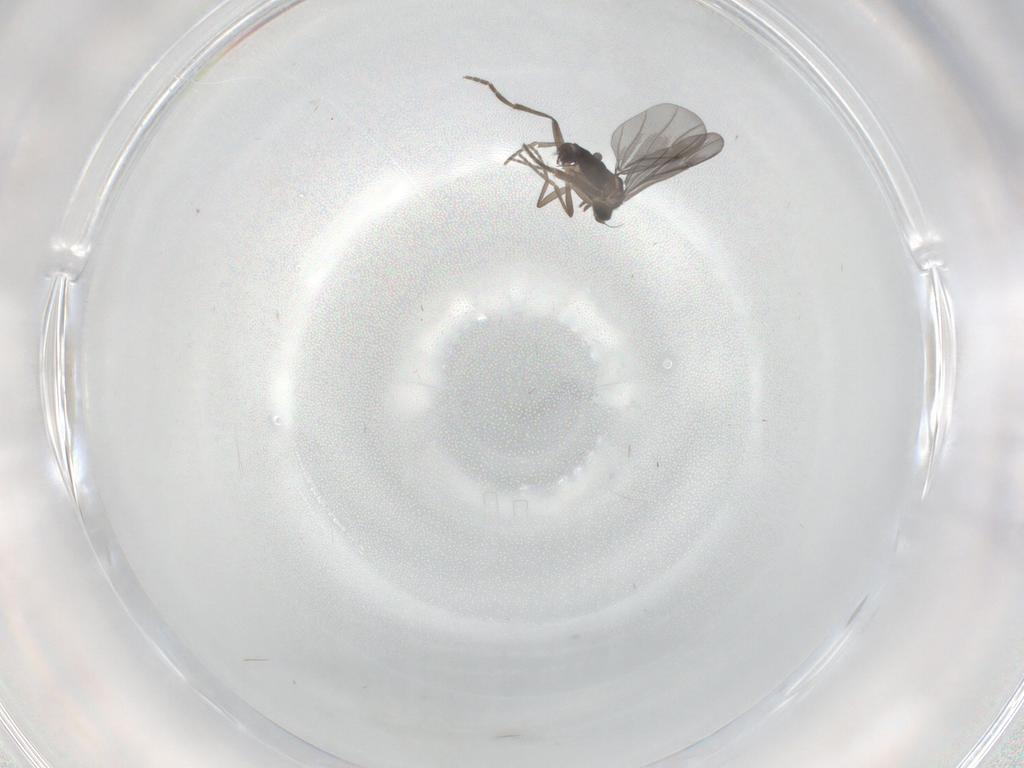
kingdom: Animalia
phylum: Arthropoda
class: Insecta
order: Diptera
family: Phoridae
